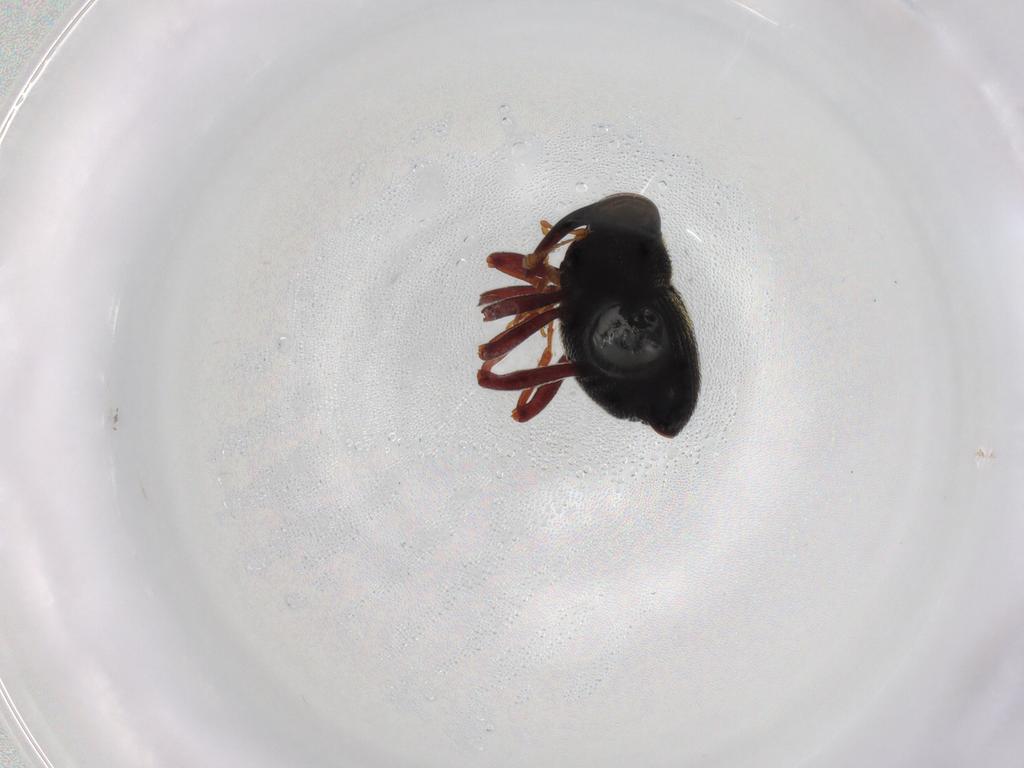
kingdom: Animalia
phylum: Arthropoda
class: Insecta
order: Coleoptera
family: Curculionidae
